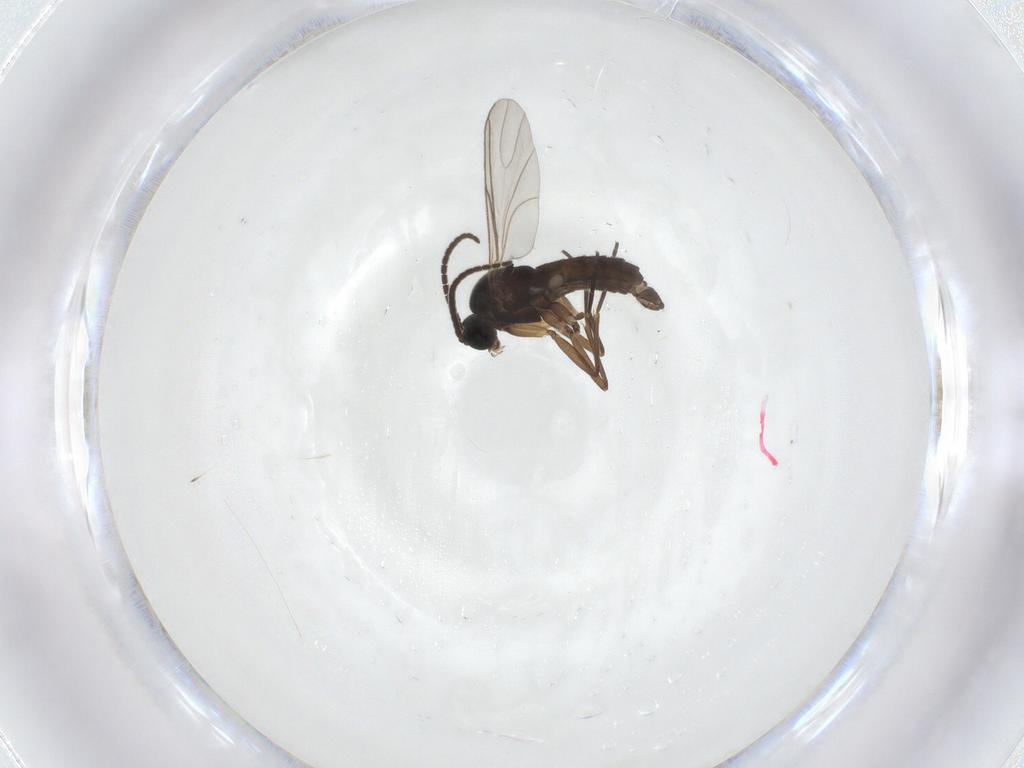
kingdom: Animalia
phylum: Arthropoda
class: Insecta
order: Diptera
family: Sciaridae
